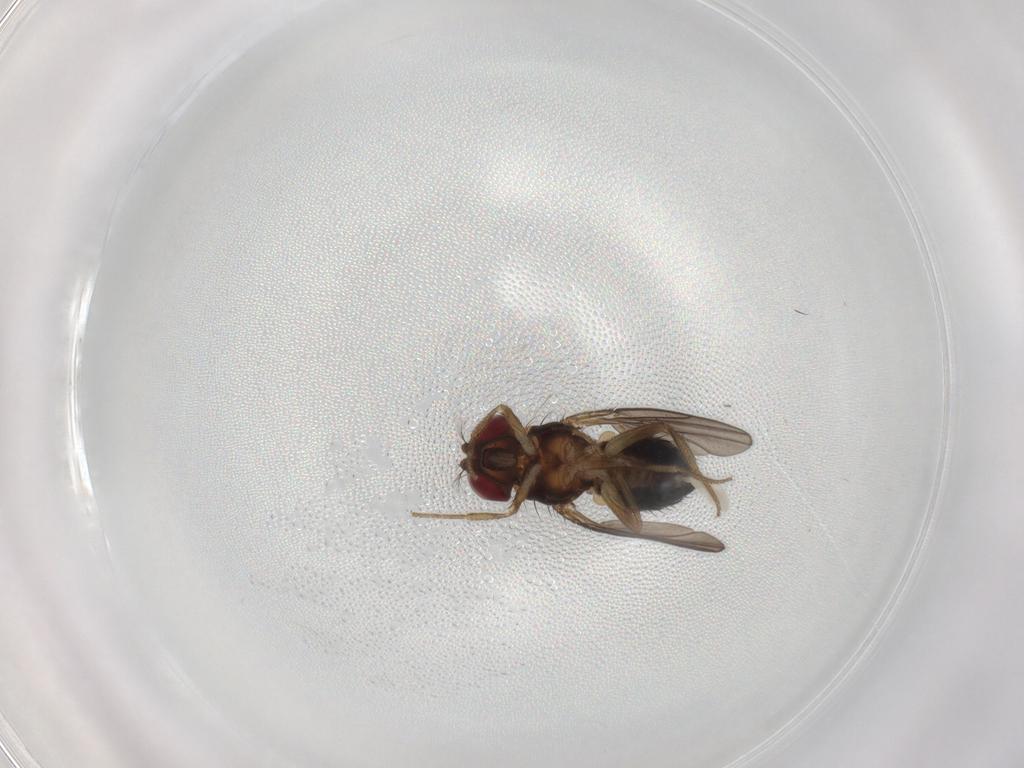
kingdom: Animalia
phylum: Arthropoda
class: Insecta
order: Diptera
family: Drosophilidae
